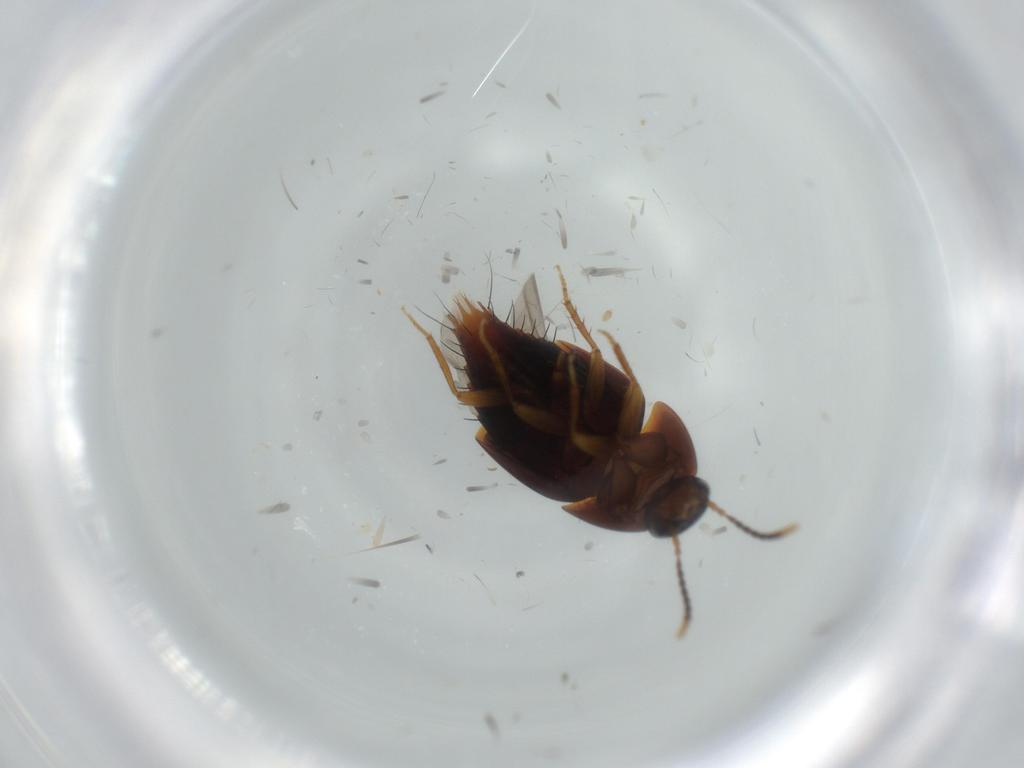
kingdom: Animalia
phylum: Arthropoda
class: Insecta
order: Coleoptera
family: Staphylinidae
